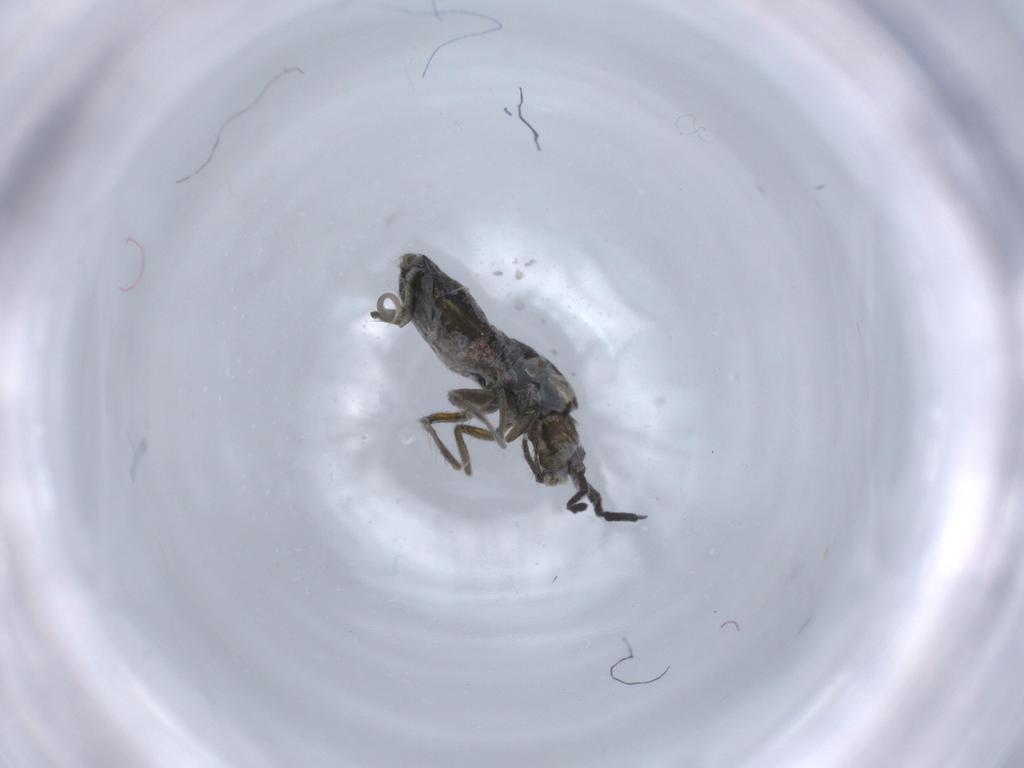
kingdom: Animalia
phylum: Arthropoda
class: Collembola
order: Entomobryomorpha
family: Tomoceridae
